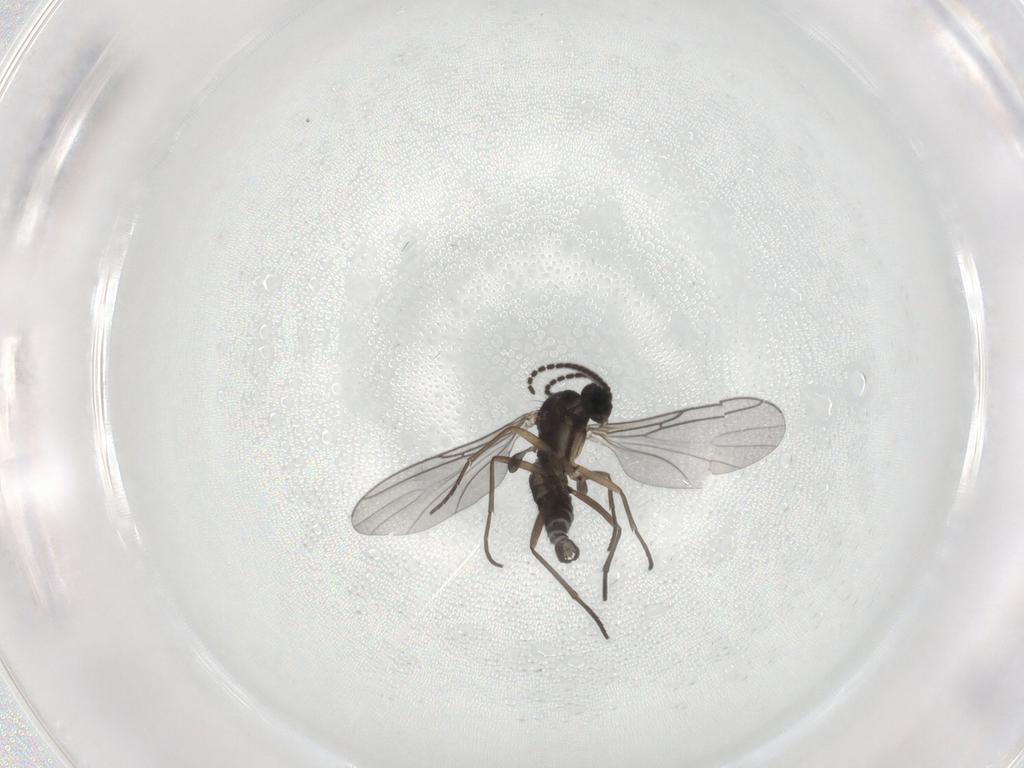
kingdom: Animalia
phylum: Arthropoda
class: Insecta
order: Diptera
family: Sciaridae
